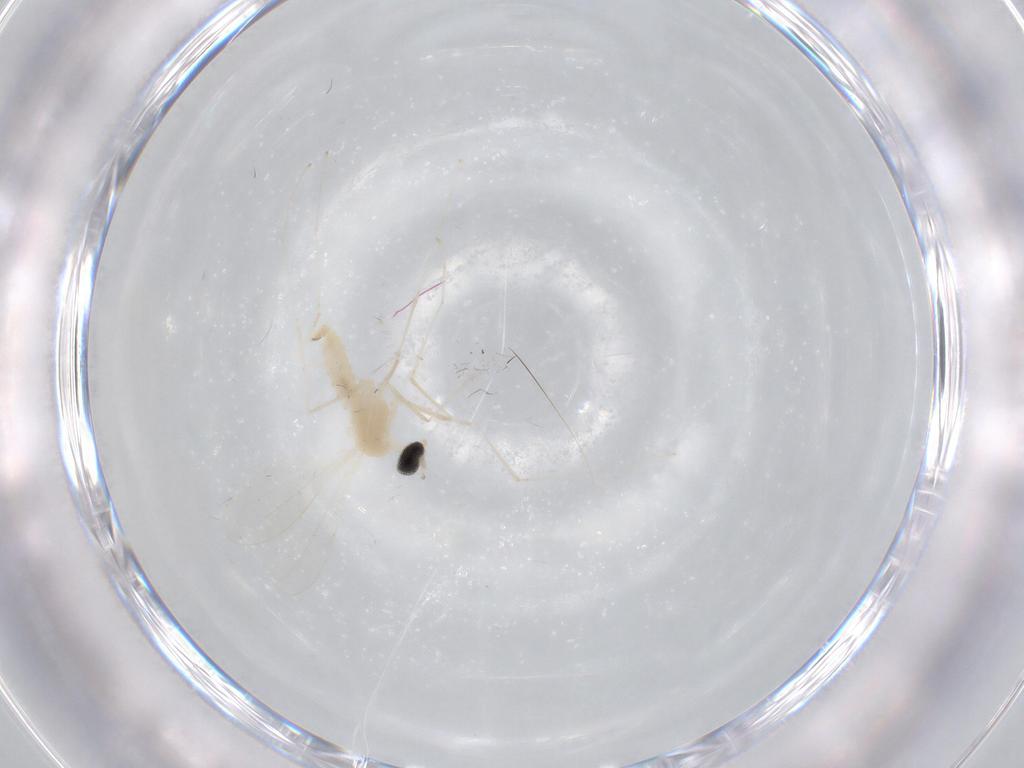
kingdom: Animalia
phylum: Arthropoda
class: Insecta
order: Diptera
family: Cecidomyiidae
